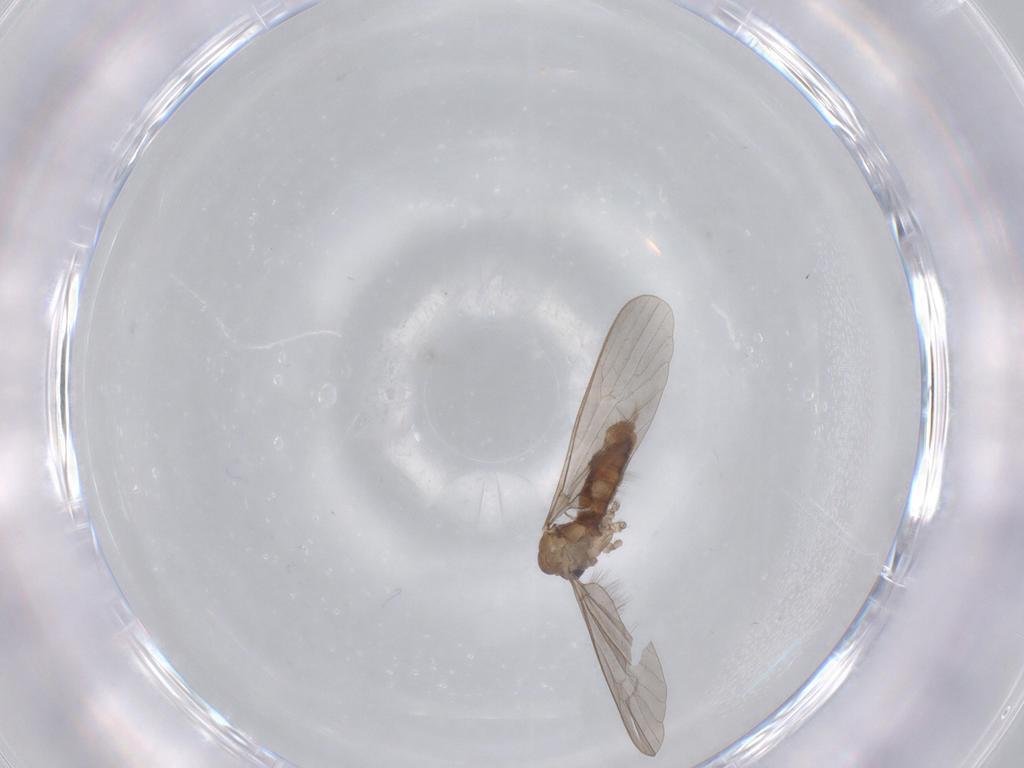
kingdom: Animalia
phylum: Arthropoda
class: Insecta
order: Diptera
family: Limoniidae
